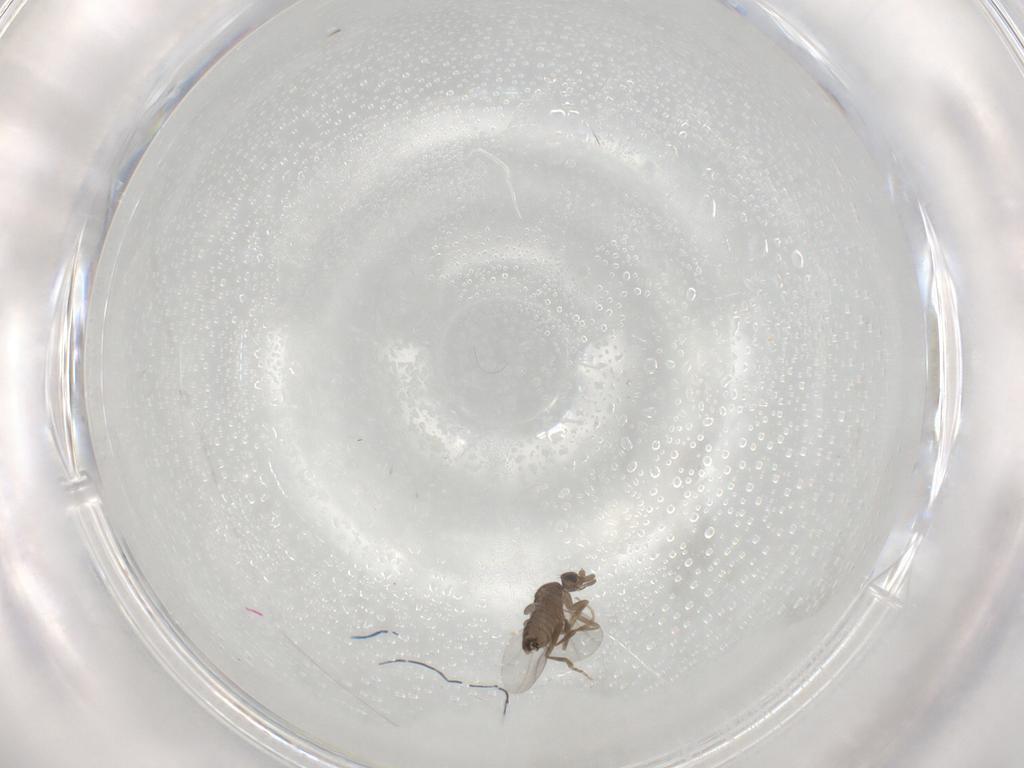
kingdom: Animalia
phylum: Arthropoda
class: Insecta
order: Diptera
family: Phoridae
